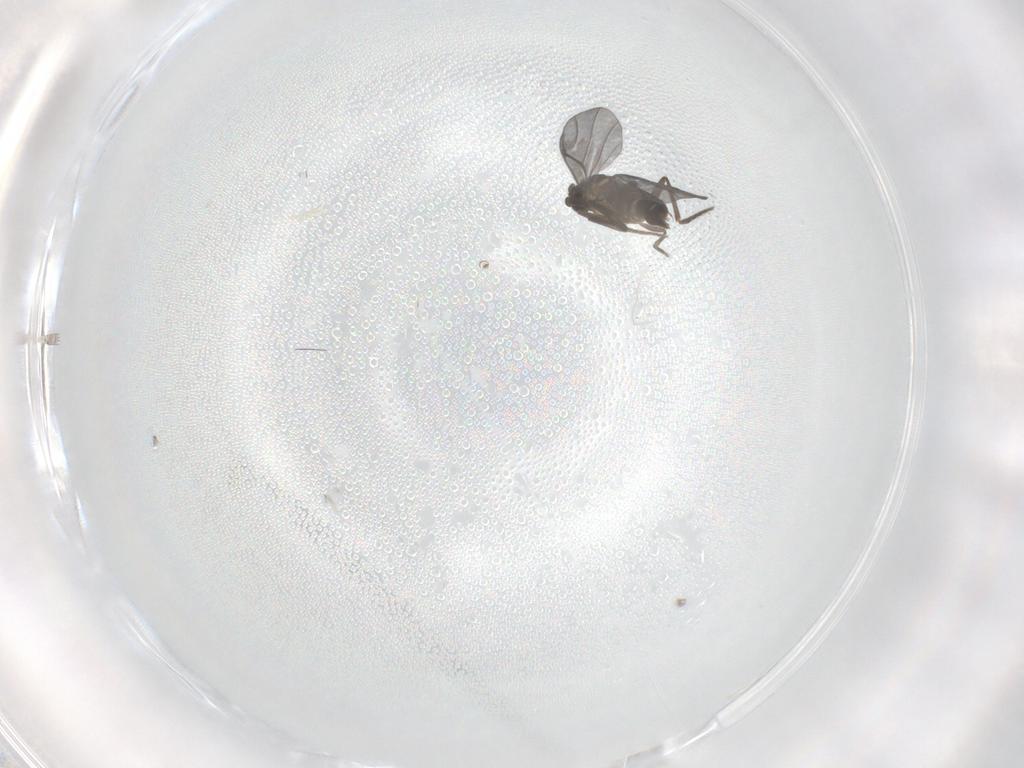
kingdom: Animalia
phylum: Arthropoda
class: Insecta
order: Diptera
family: Phoridae
